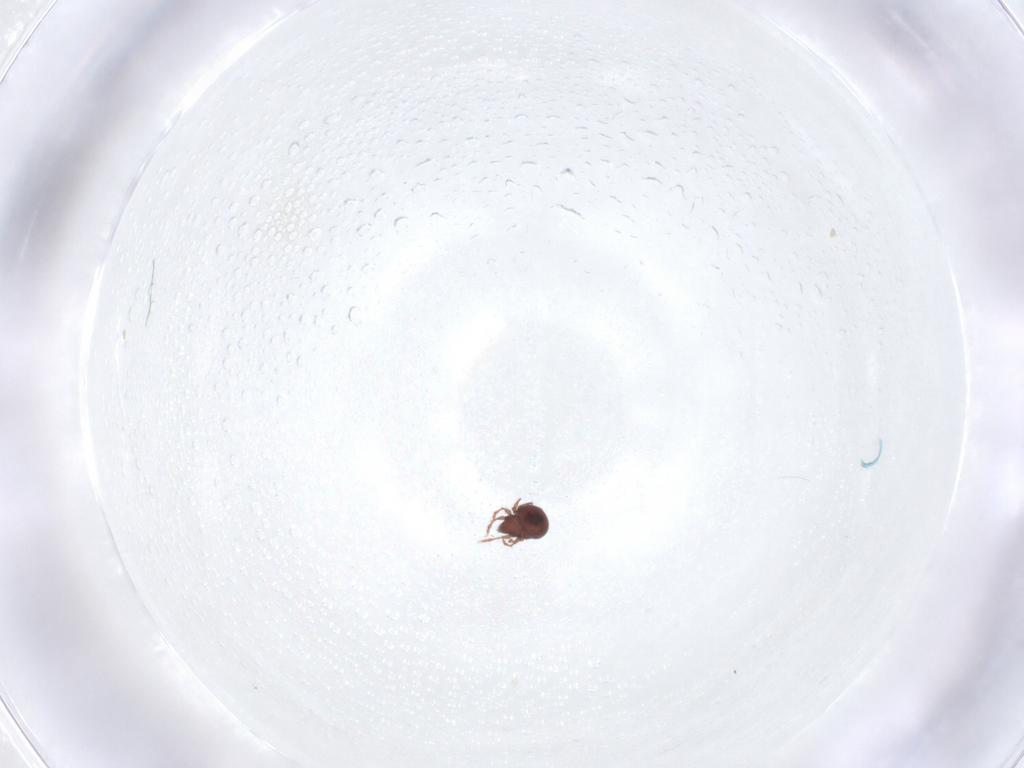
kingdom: Animalia
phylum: Arthropoda
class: Arachnida
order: Sarcoptiformes
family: Oribatulidae
